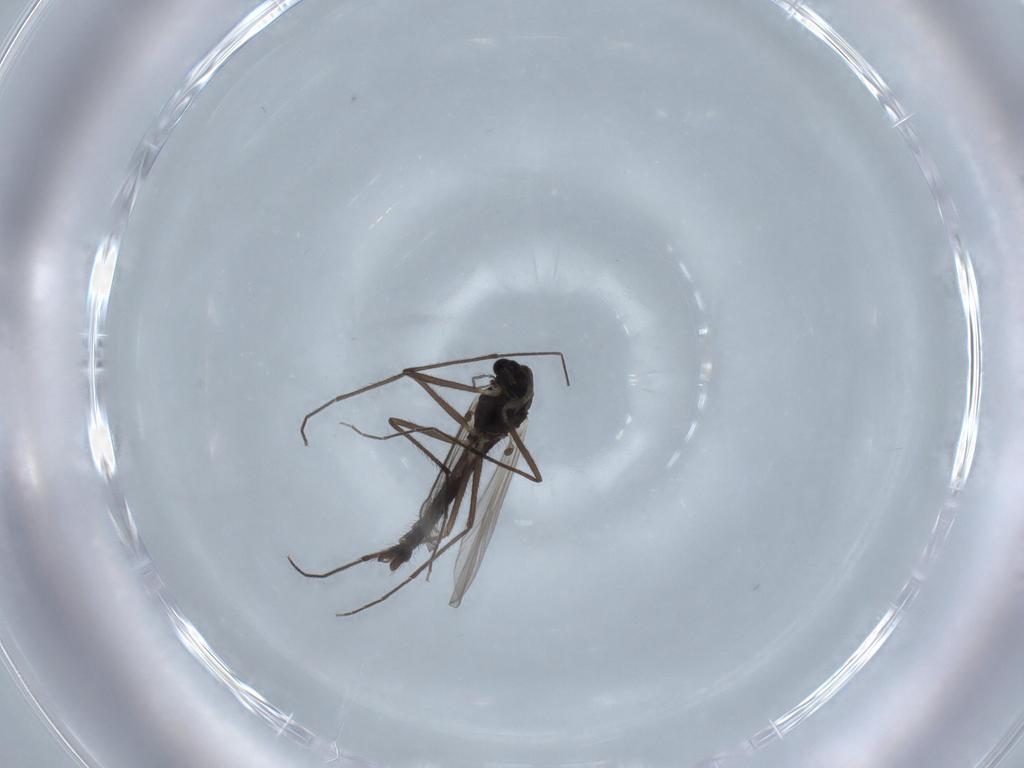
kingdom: Animalia
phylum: Arthropoda
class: Insecta
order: Diptera
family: Chironomidae
